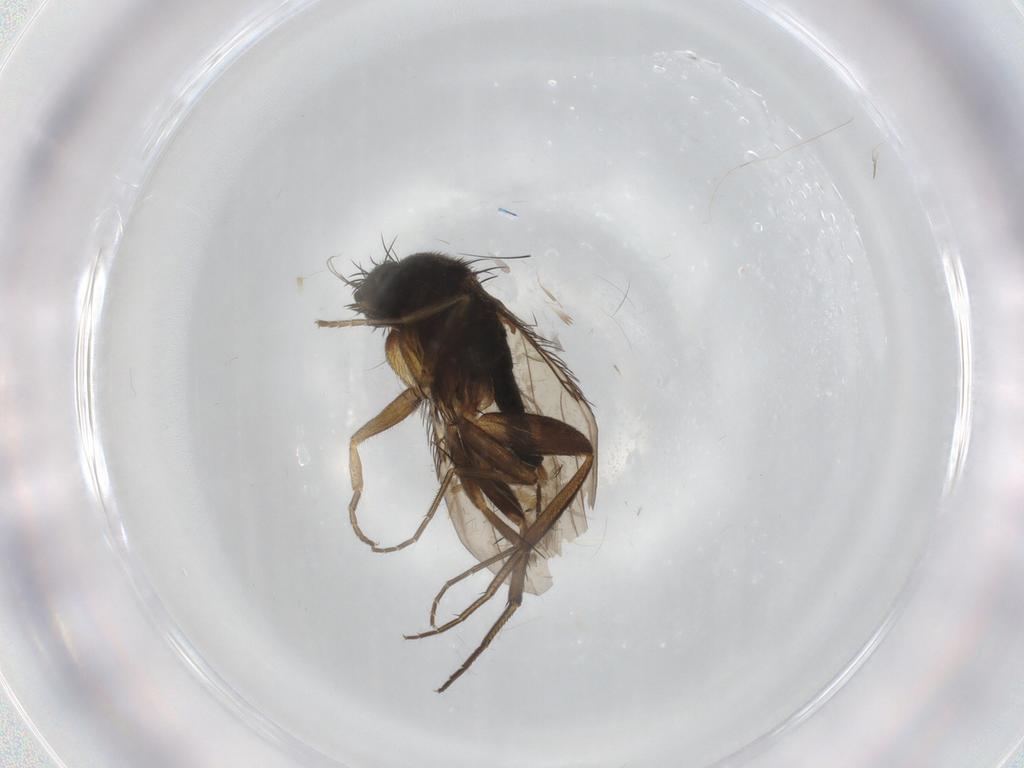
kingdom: Animalia
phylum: Arthropoda
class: Insecta
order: Diptera
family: Phoridae
